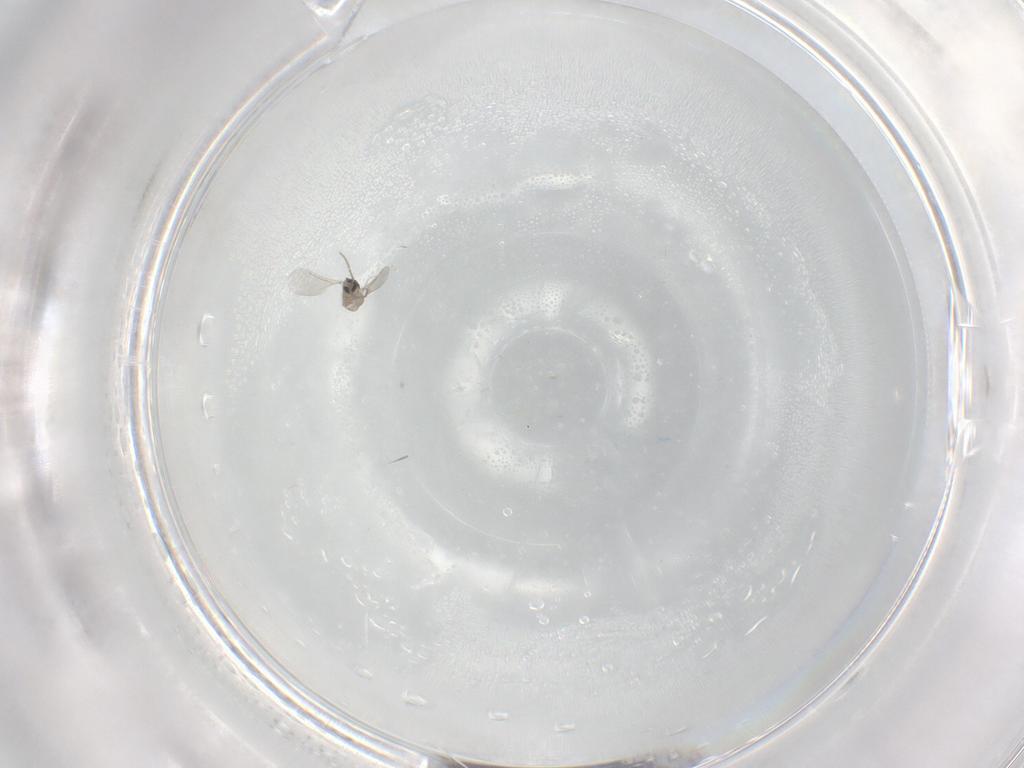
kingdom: Animalia
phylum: Arthropoda
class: Insecta
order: Diptera
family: Cecidomyiidae
